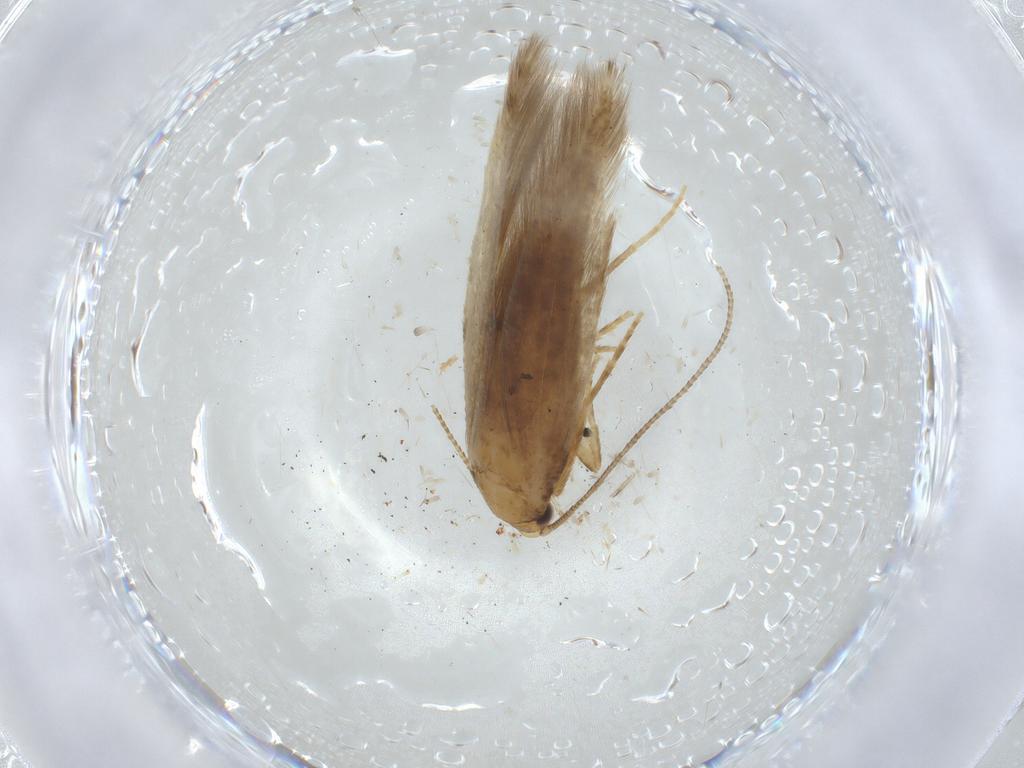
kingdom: Animalia
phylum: Arthropoda
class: Insecta
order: Lepidoptera
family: Tineidae
